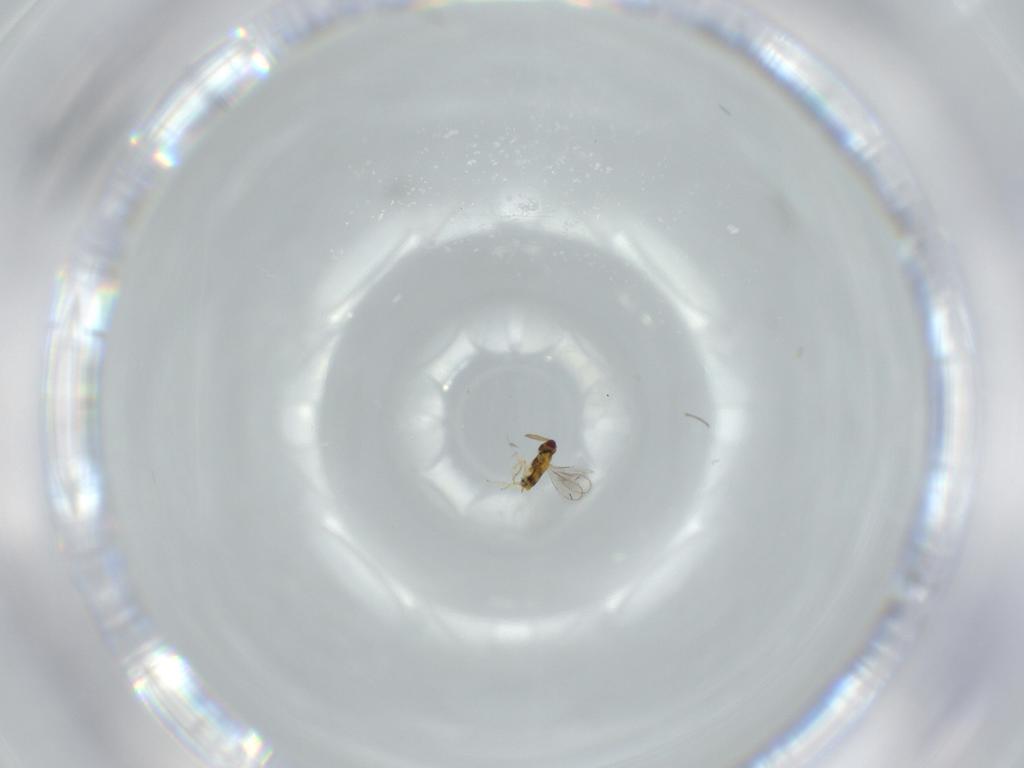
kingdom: Animalia
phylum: Arthropoda
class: Insecta
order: Hymenoptera
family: Aphelinidae
